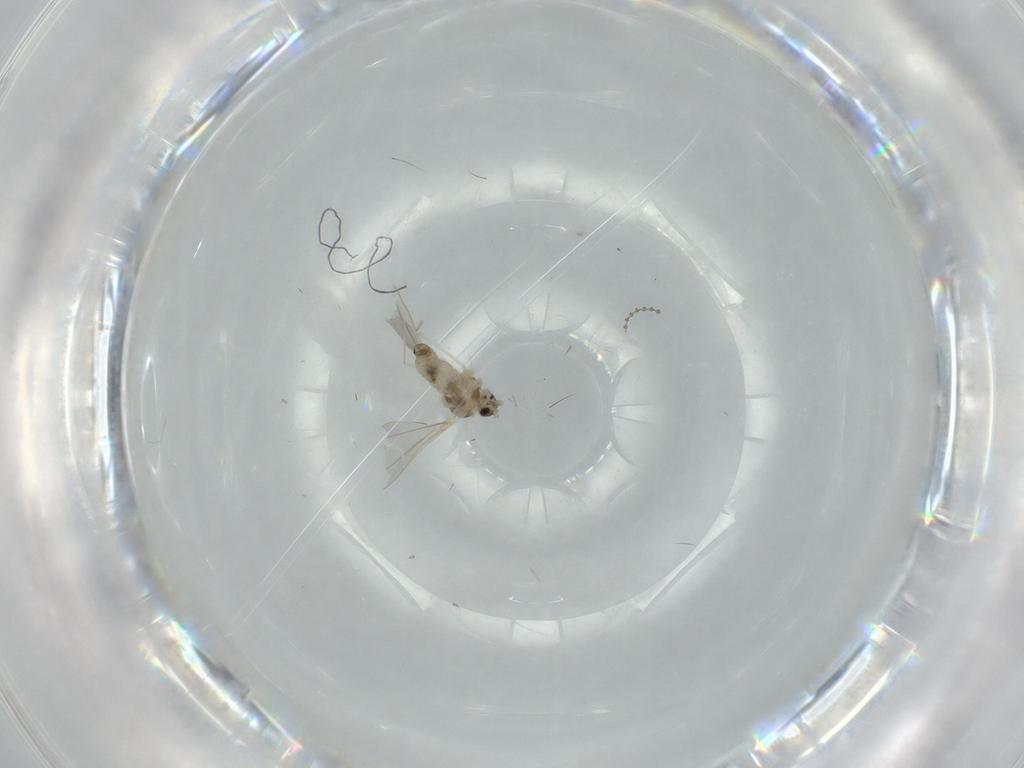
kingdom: Animalia
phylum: Arthropoda
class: Insecta
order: Diptera
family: Cecidomyiidae
